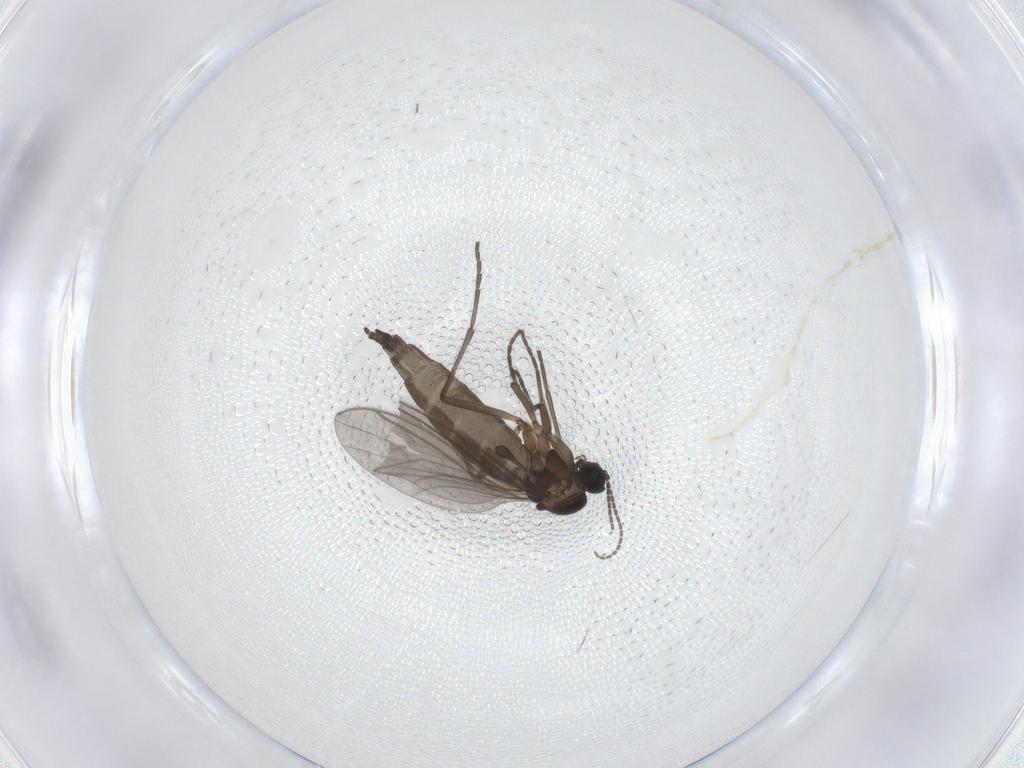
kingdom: Animalia
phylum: Arthropoda
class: Insecta
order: Diptera
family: Sciaridae
